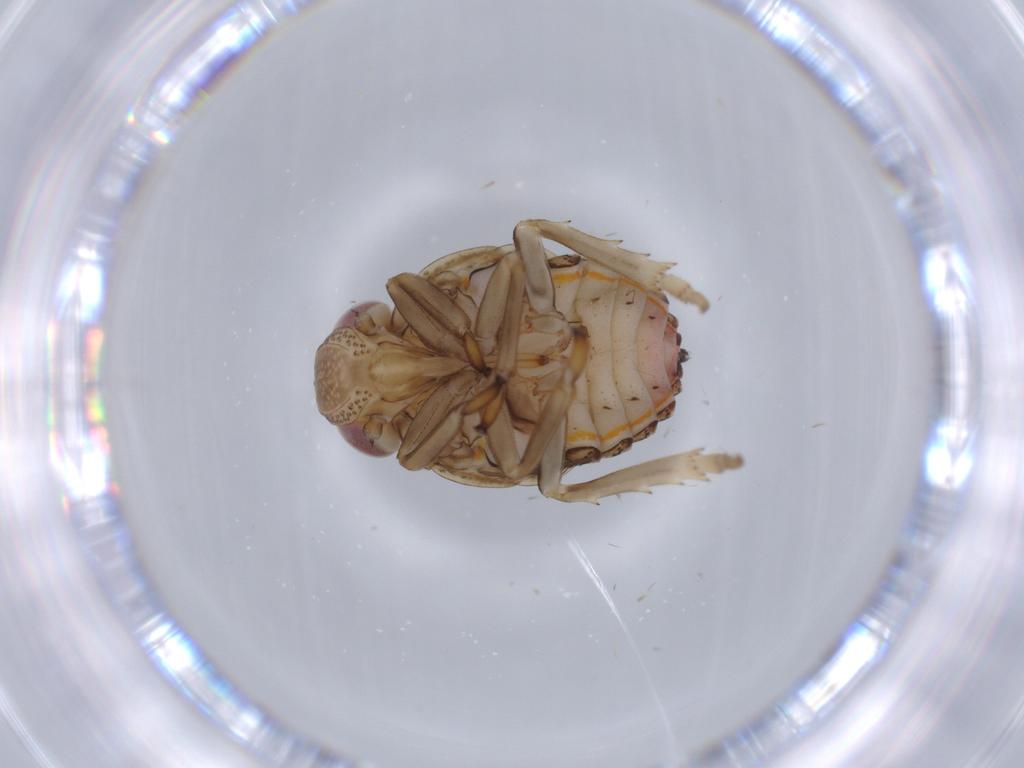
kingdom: Animalia
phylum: Arthropoda
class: Insecta
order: Hemiptera
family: Issidae
